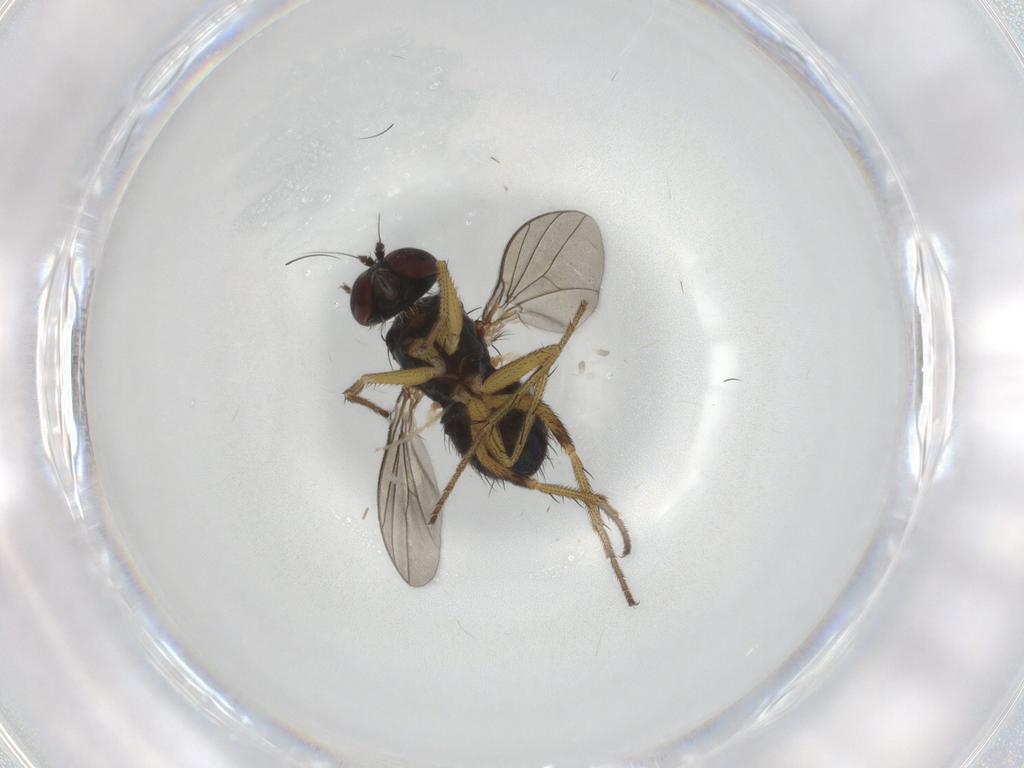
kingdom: Animalia
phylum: Arthropoda
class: Insecta
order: Diptera
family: Dolichopodidae
